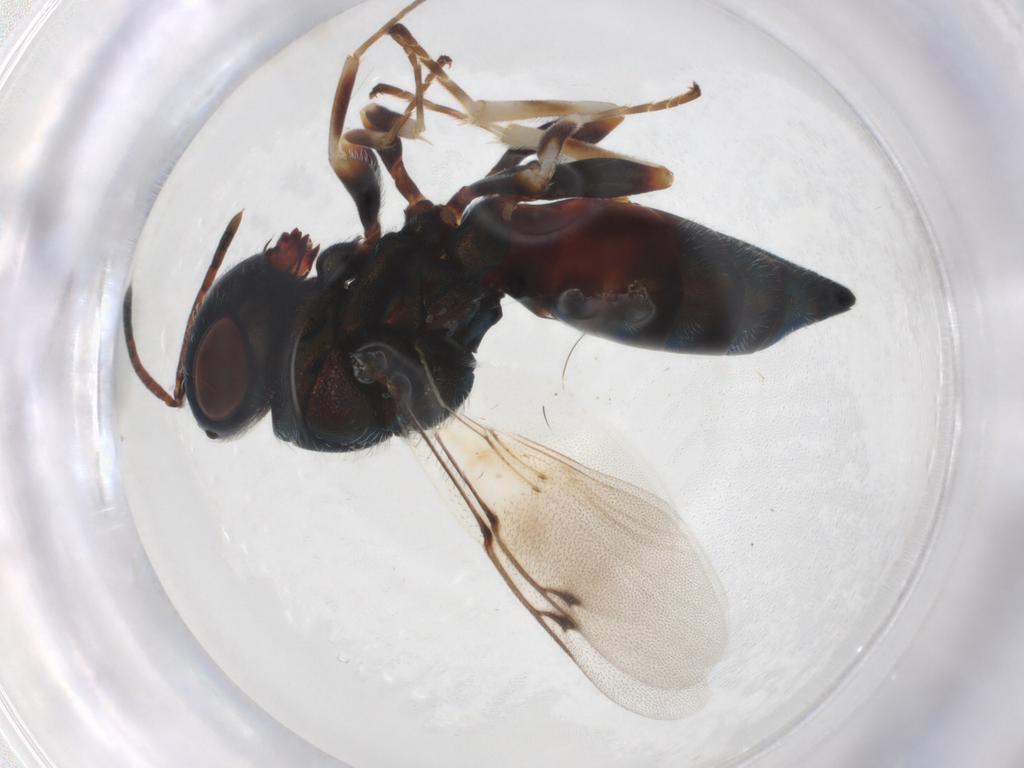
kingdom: Animalia
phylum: Arthropoda
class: Insecta
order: Hymenoptera
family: Pteromalidae
